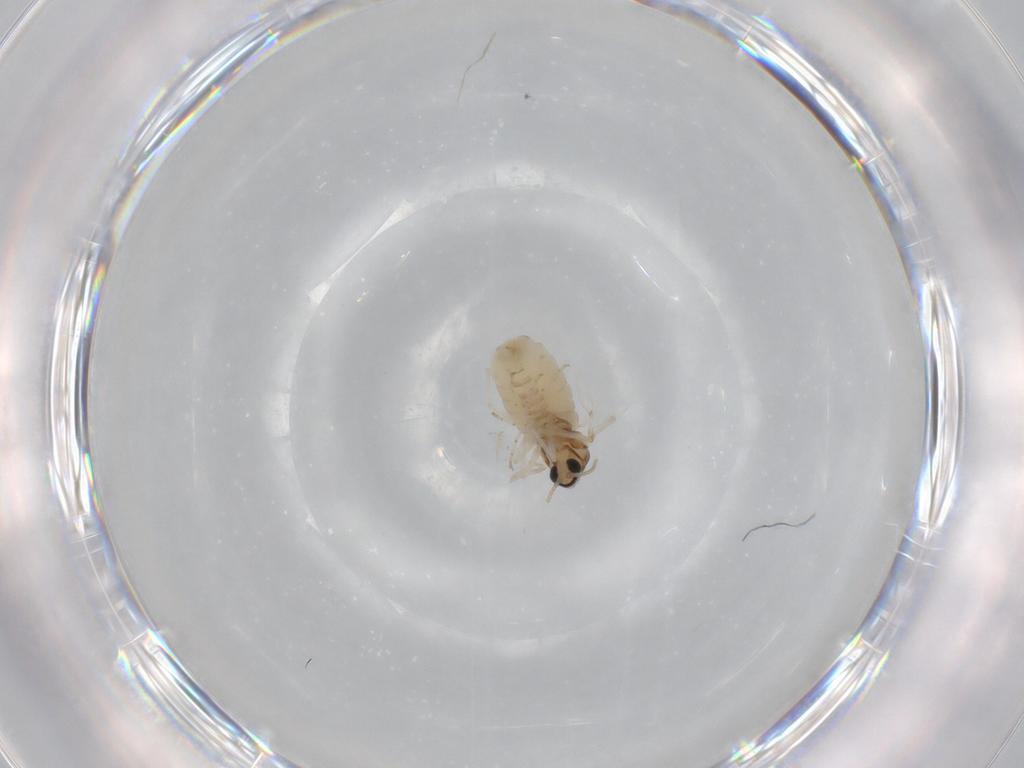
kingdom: Animalia
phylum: Arthropoda
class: Insecta
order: Diptera
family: Cecidomyiidae
